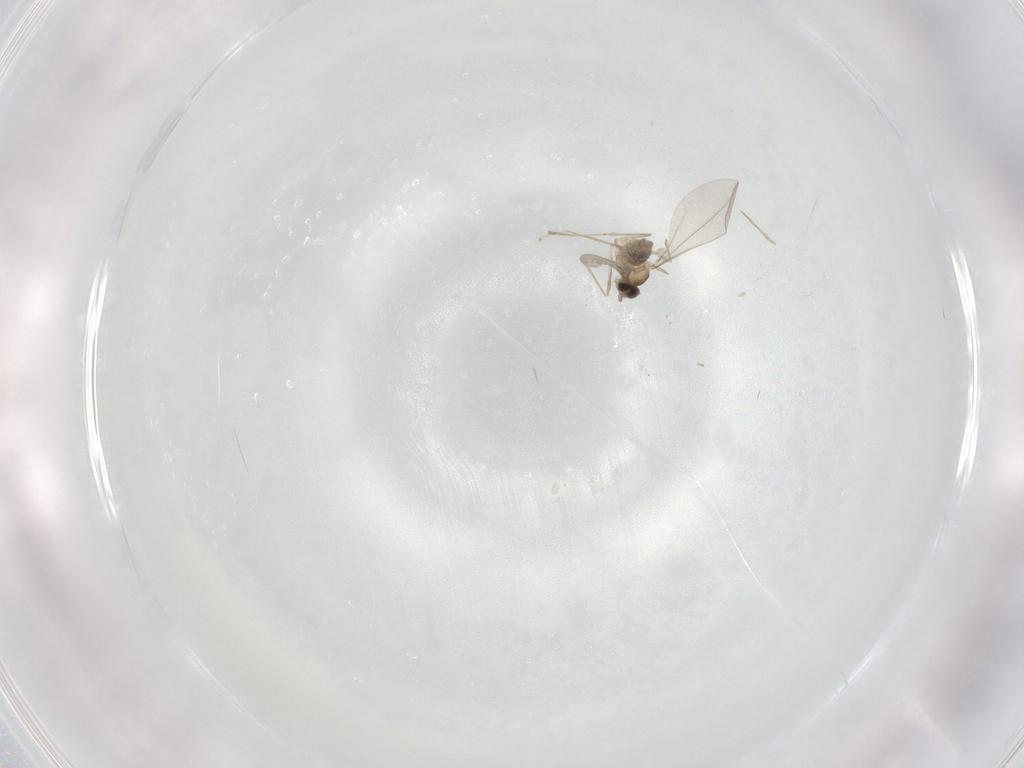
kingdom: Animalia
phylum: Arthropoda
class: Insecta
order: Diptera
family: Cecidomyiidae
